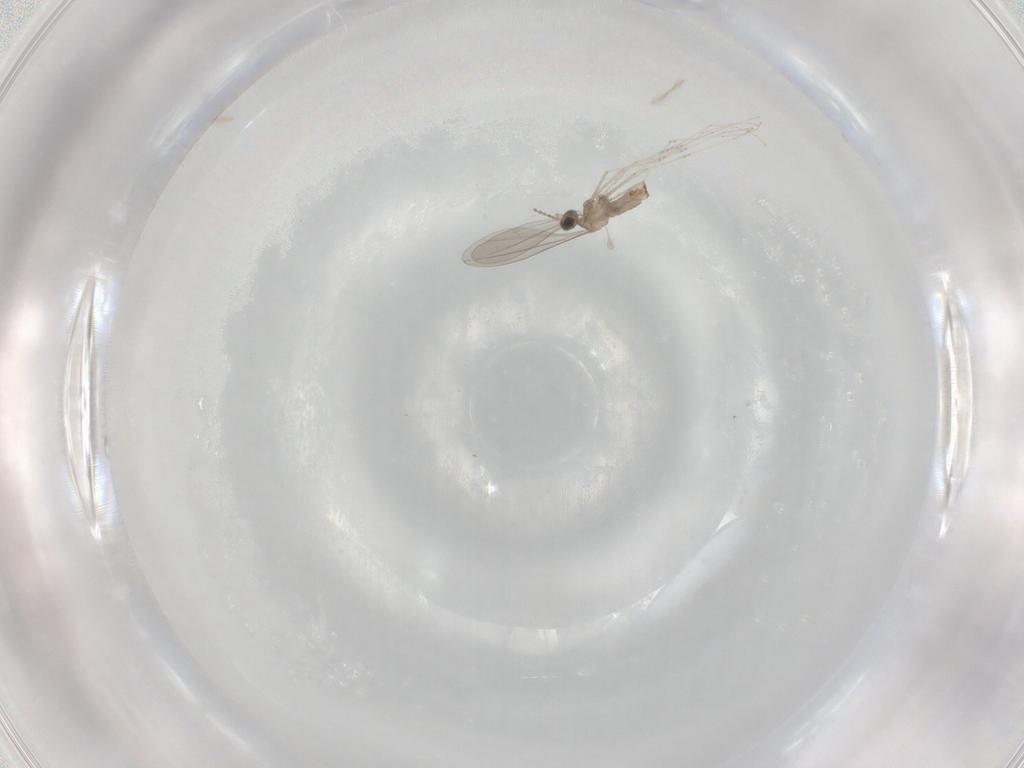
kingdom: Animalia
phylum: Arthropoda
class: Insecta
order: Diptera
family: Cecidomyiidae
